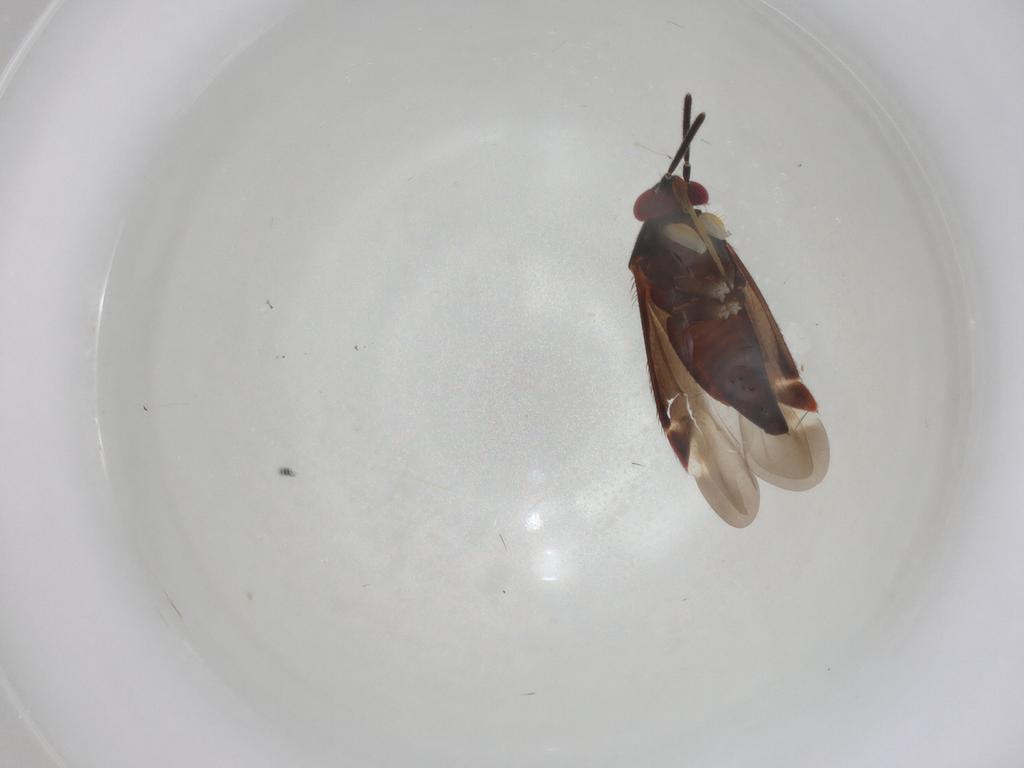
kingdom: Animalia
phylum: Arthropoda
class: Insecta
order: Hemiptera
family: Miridae
